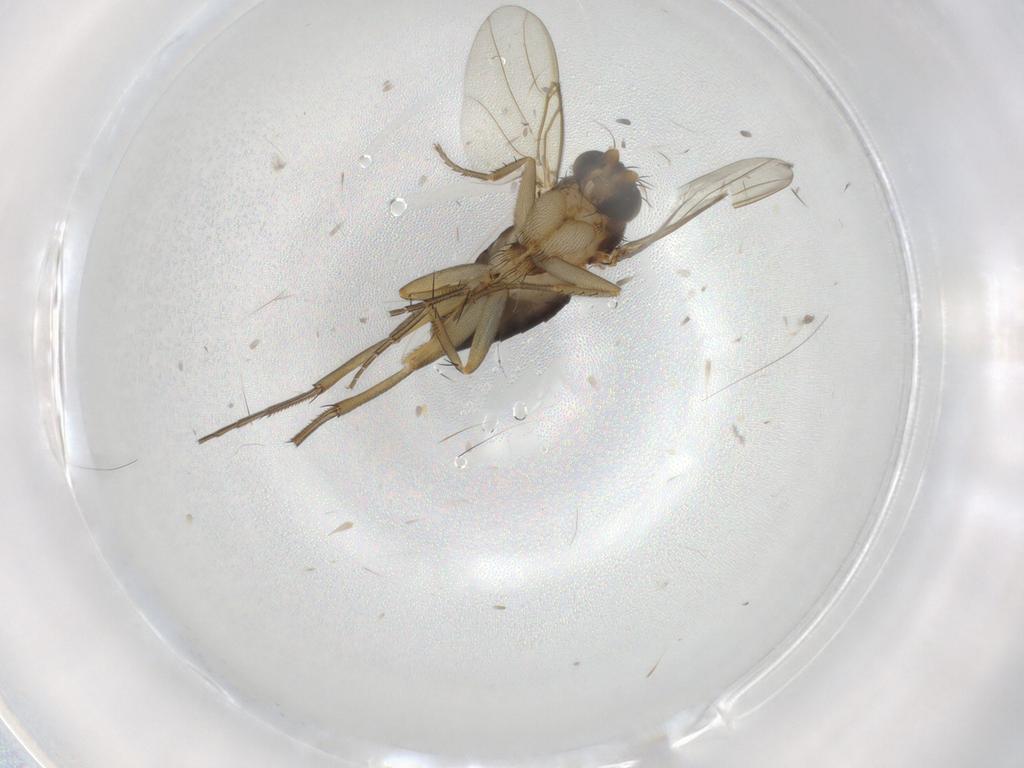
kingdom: Animalia
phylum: Arthropoda
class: Insecta
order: Diptera
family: Phoridae
